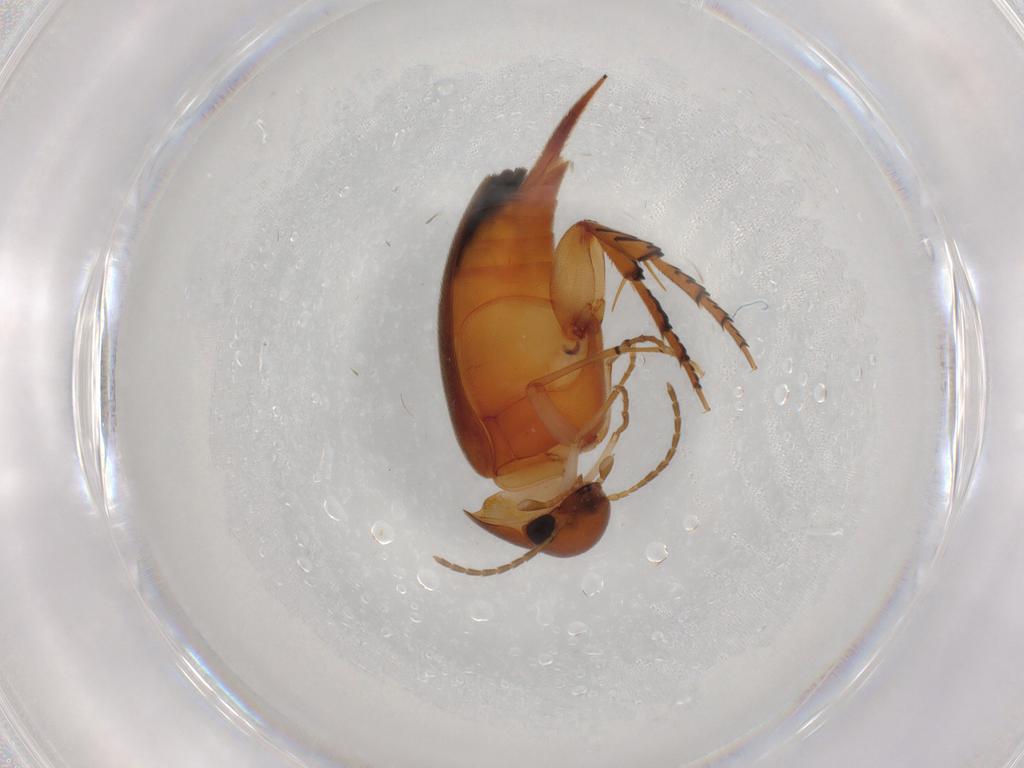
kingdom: Animalia
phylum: Arthropoda
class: Insecta
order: Coleoptera
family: Mordellidae
